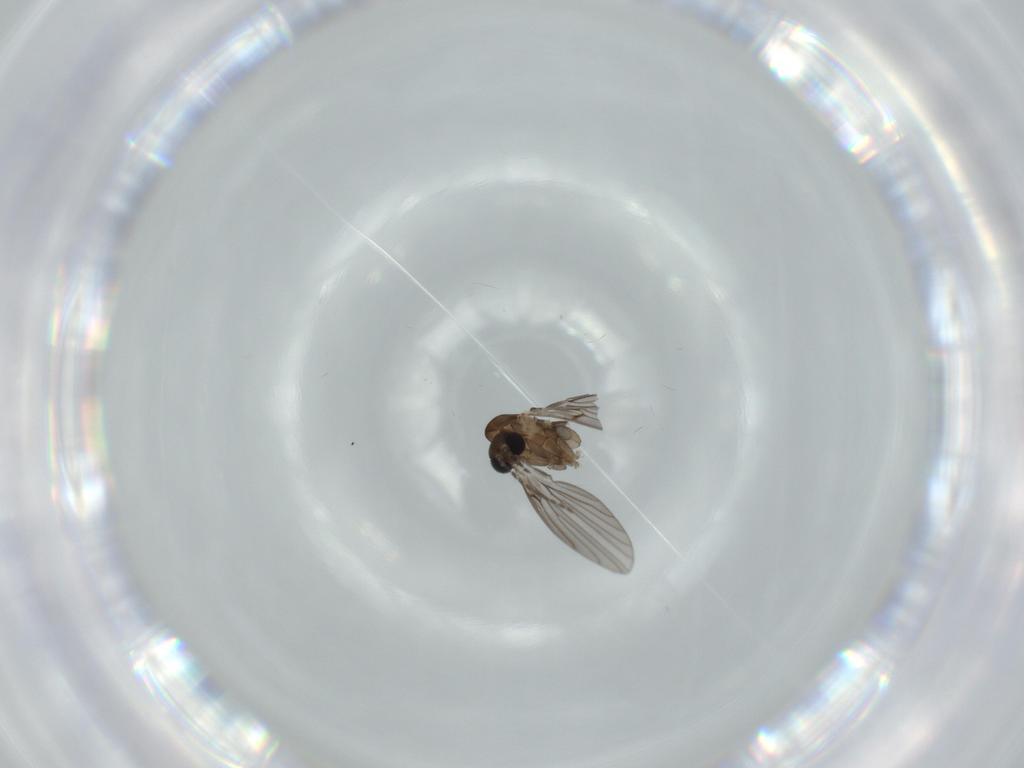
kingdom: Animalia
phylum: Arthropoda
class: Insecta
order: Diptera
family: Psychodidae
